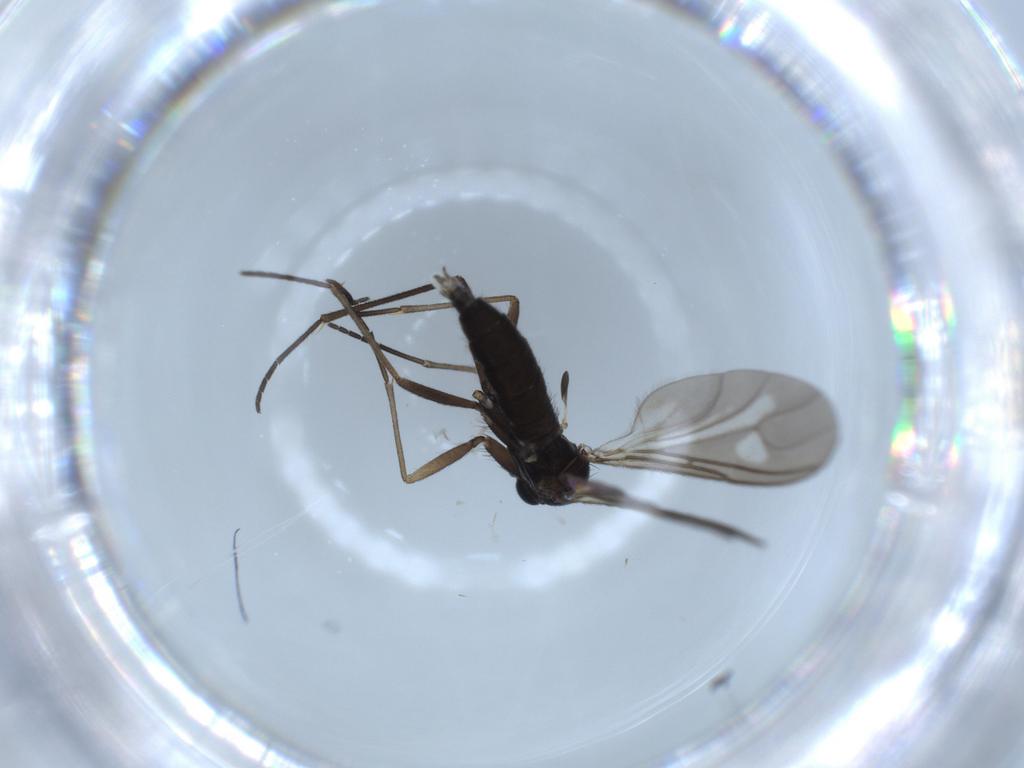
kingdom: Animalia
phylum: Arthropoda
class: Insecta
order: Diptera
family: Sciaridae
